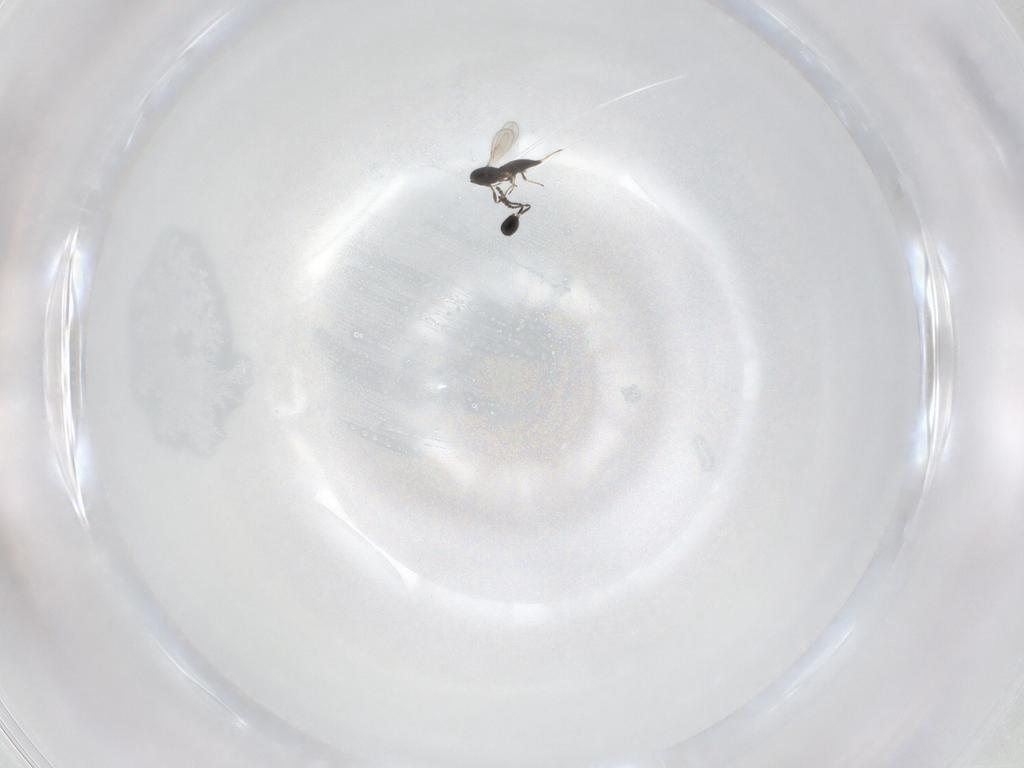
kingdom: Animalia
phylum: Arthropoda
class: Insecta
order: Hymenoptera
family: Scelionidae
